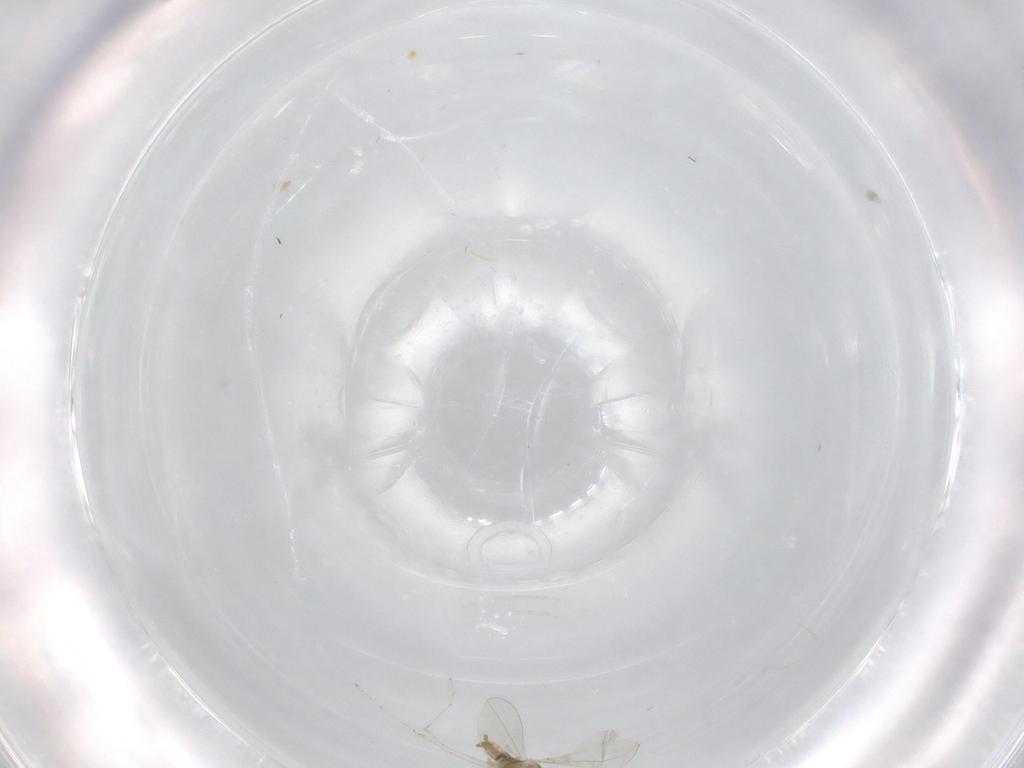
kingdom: Animalia
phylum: Arthropoda
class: Insecta
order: Diptera
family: Cecidomyiidae
